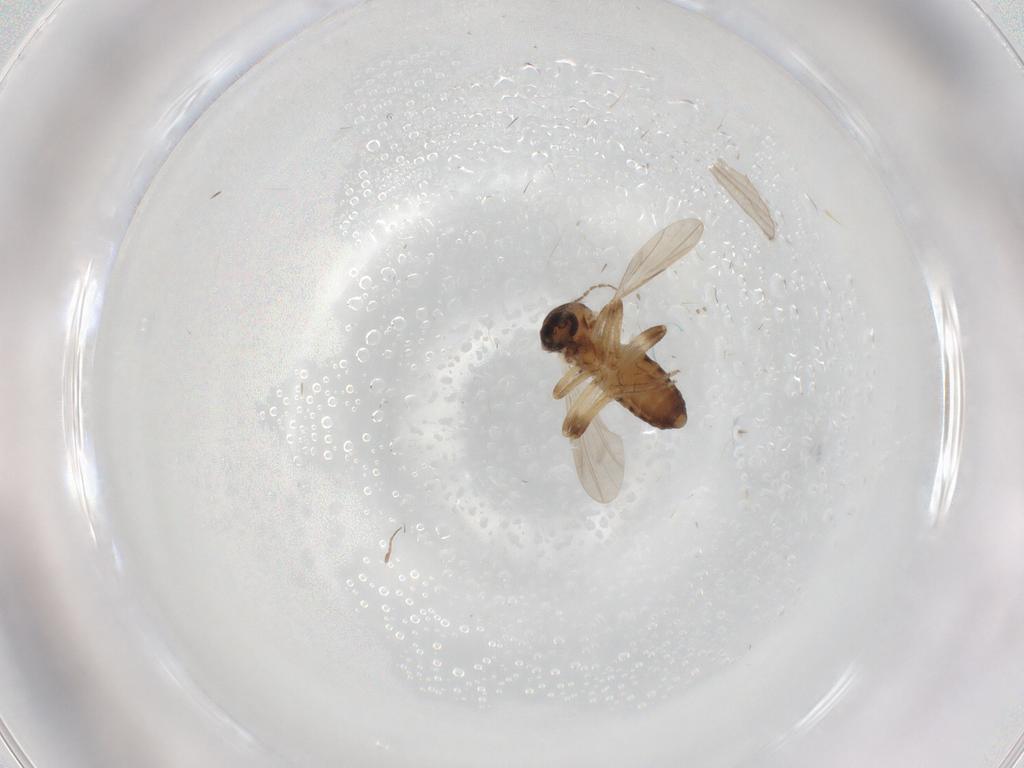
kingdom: Animalia
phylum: Arthropoda
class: Insecta
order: Diptera
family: Ceratopogonidae
